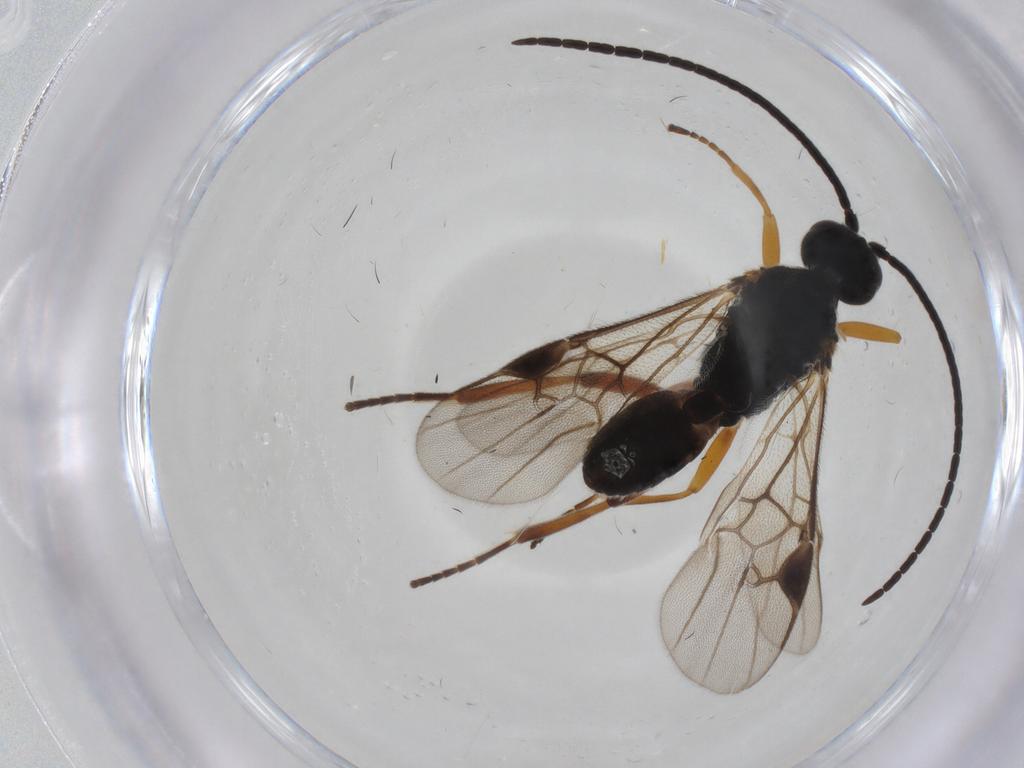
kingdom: Animalia
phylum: Arthropoda
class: Insecta
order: Hymenoptera
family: Braconidae
